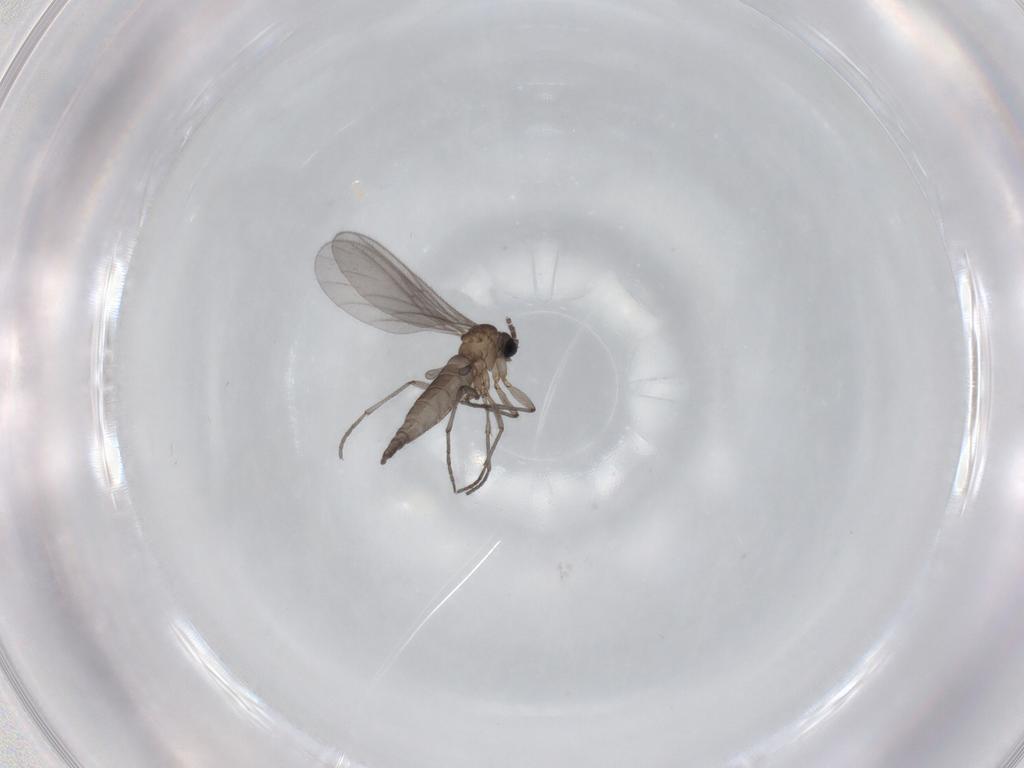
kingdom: Animalia
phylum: Arthropoda
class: Insecta
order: Diptera
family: Sciaridae
